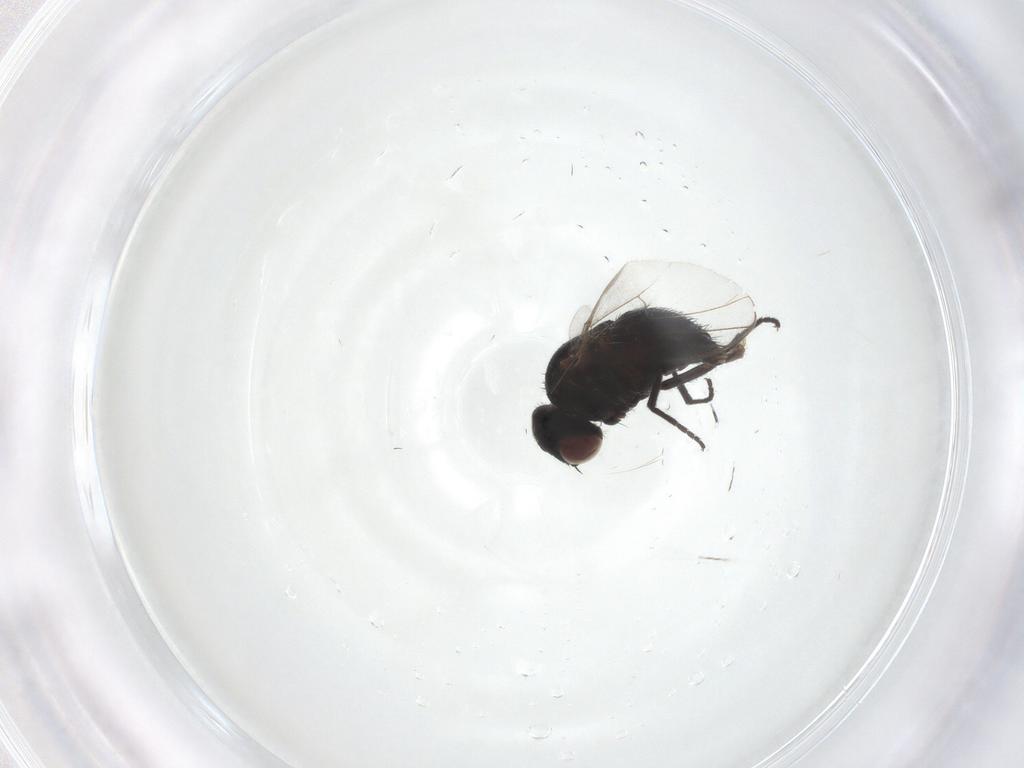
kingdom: Animalia
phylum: Arthropoda
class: Insecta
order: Diptera
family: Agromyzidae
